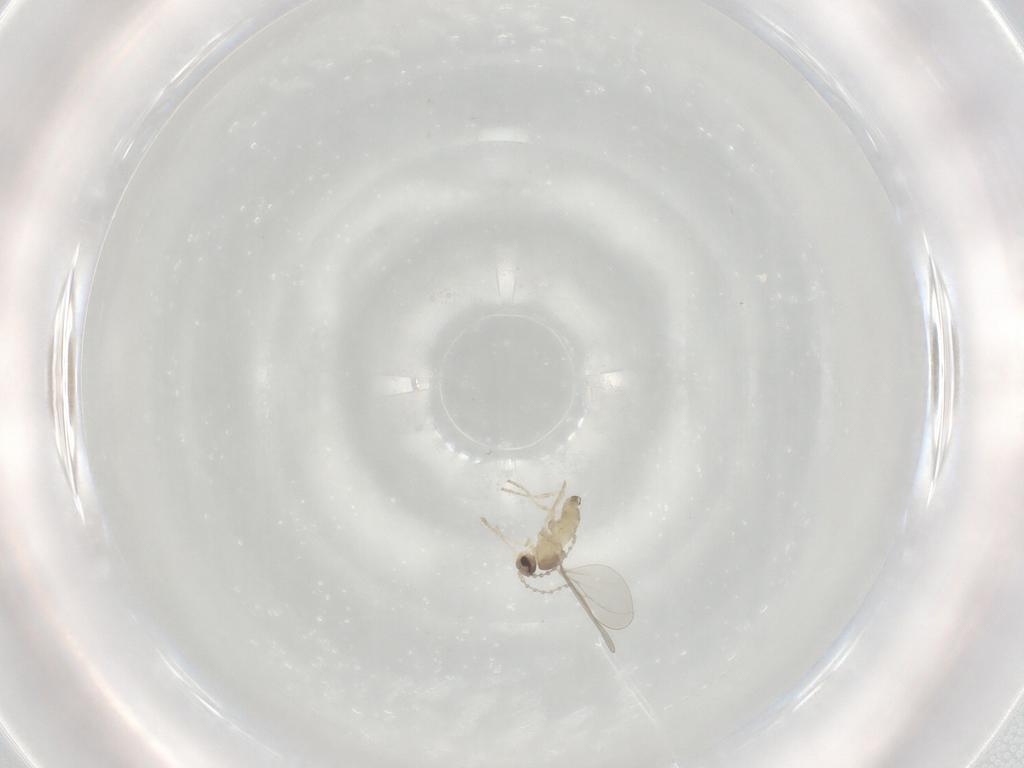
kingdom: Animalia
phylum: Arthropoda
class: Insecta
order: Diptera
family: Cecidomyiidae
